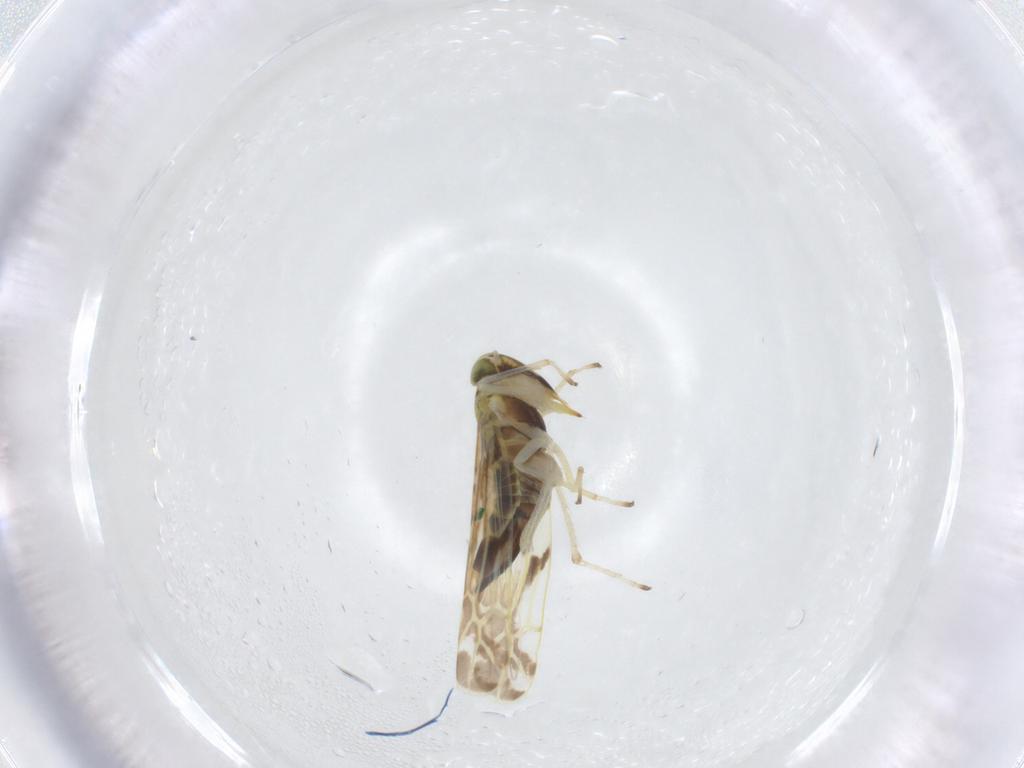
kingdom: Animalia
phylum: Arthropoda
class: Insecta
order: Hemiptera
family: Cicadellidae
